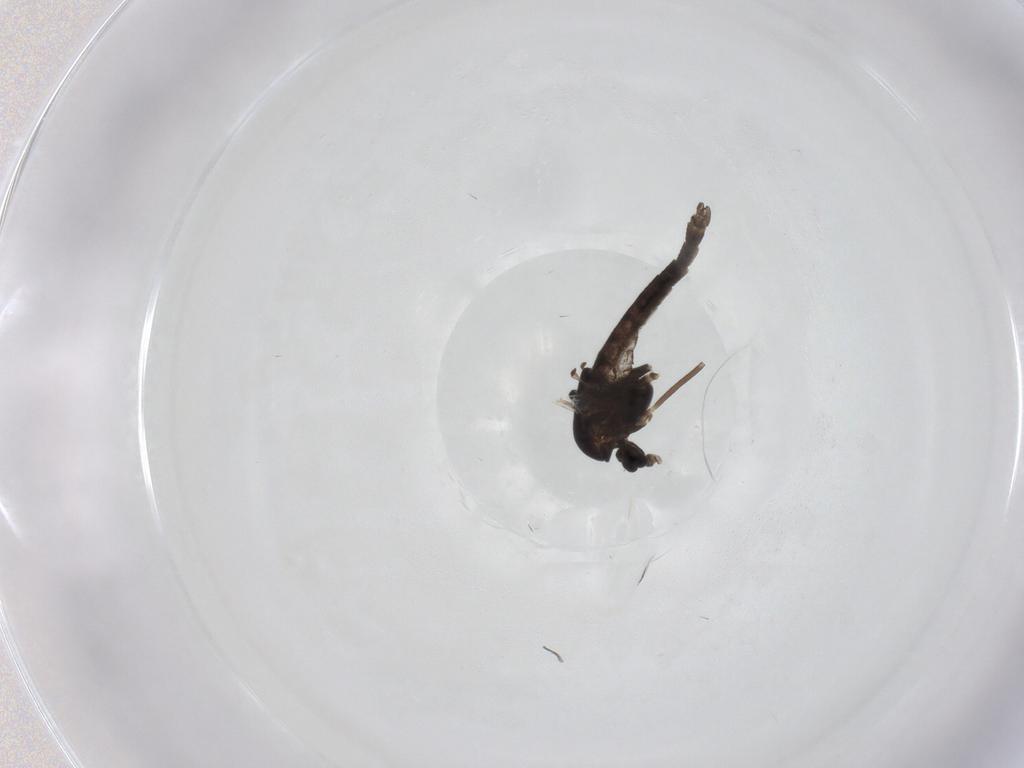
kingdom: Animalia
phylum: Arthropoda
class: Insecta
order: Diptera
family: Chironomidae
